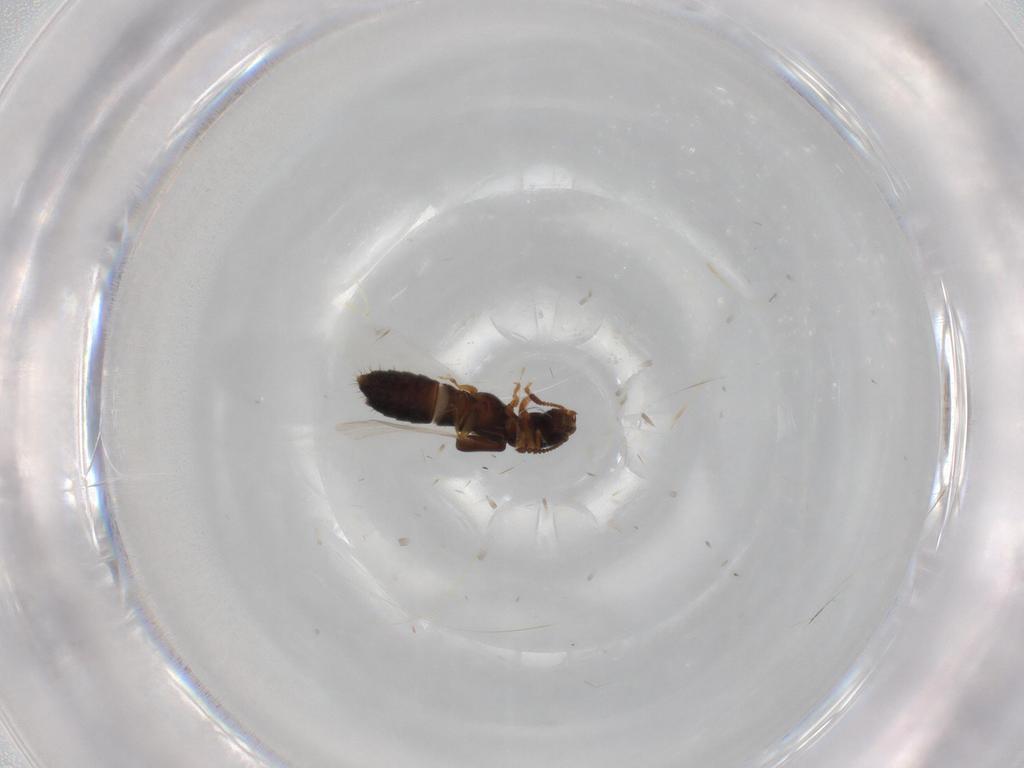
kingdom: Animalia
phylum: Arthropoda
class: Insecta
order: Coleoptera
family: Staphylinidae
